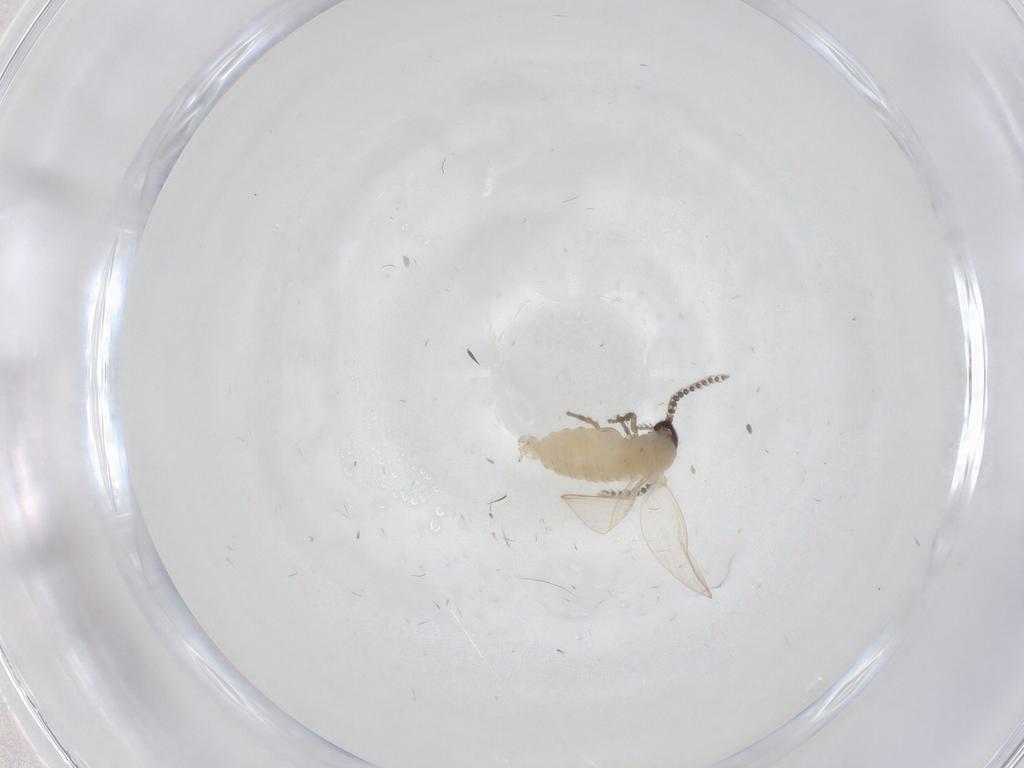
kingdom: Animalia
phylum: Arthropoda
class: Insecta
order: Diptera
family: Psychodidae
